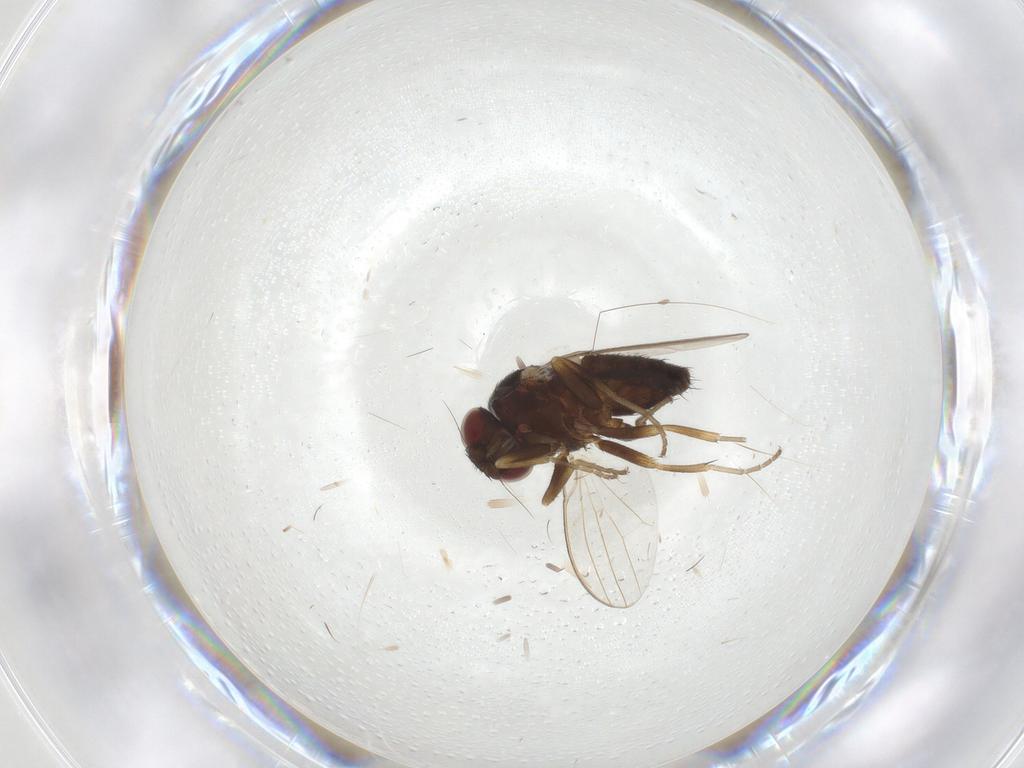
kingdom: Animalia
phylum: Arthropoda
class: Insecta
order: Diptera
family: Milichiidae
